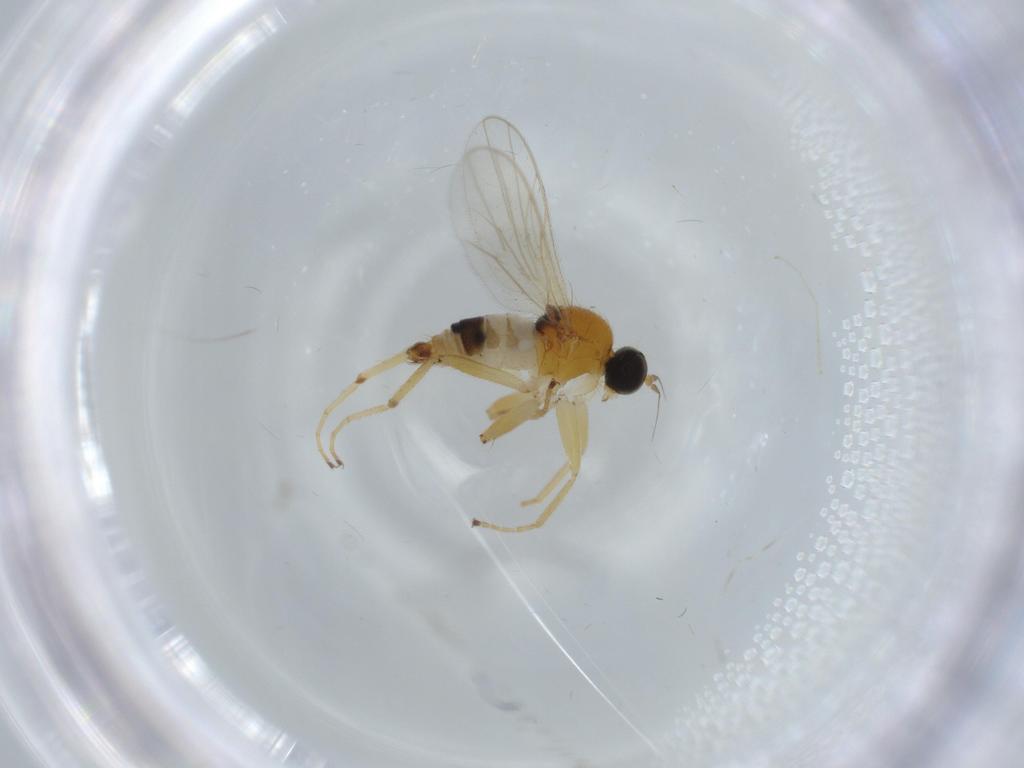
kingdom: Animalia
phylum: Arthropoda
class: Insecta
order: Diptera
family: Hybotidae
